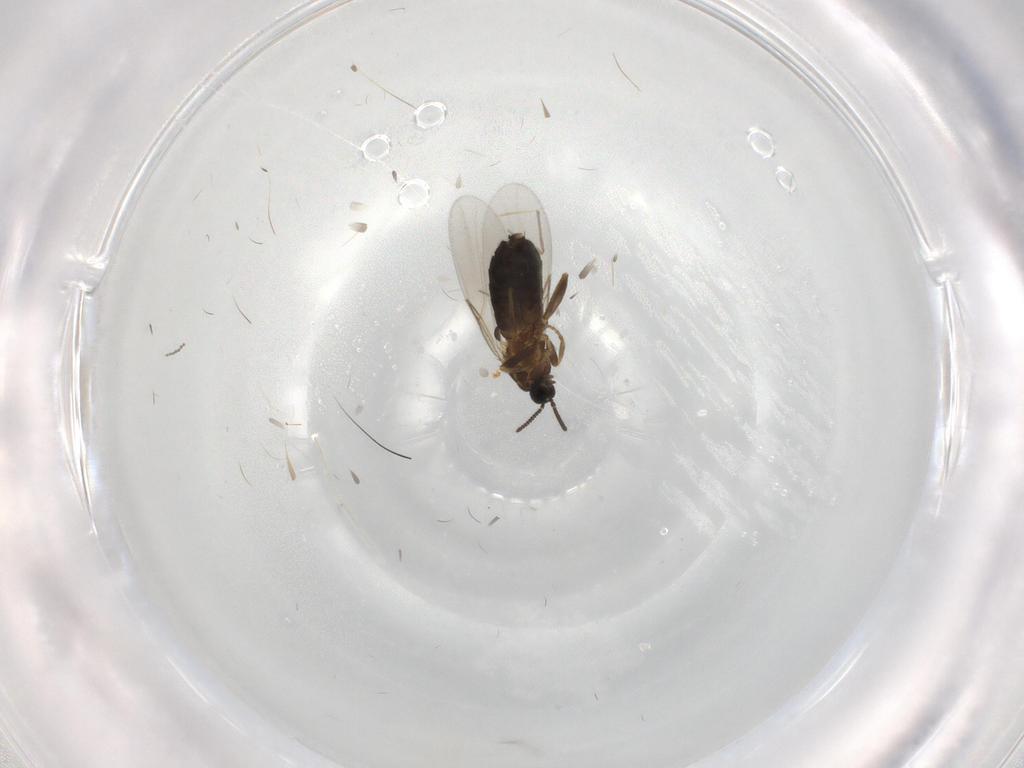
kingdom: Animalia
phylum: Arthropoda
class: Insecta
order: Diptera
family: Scatopsidae
